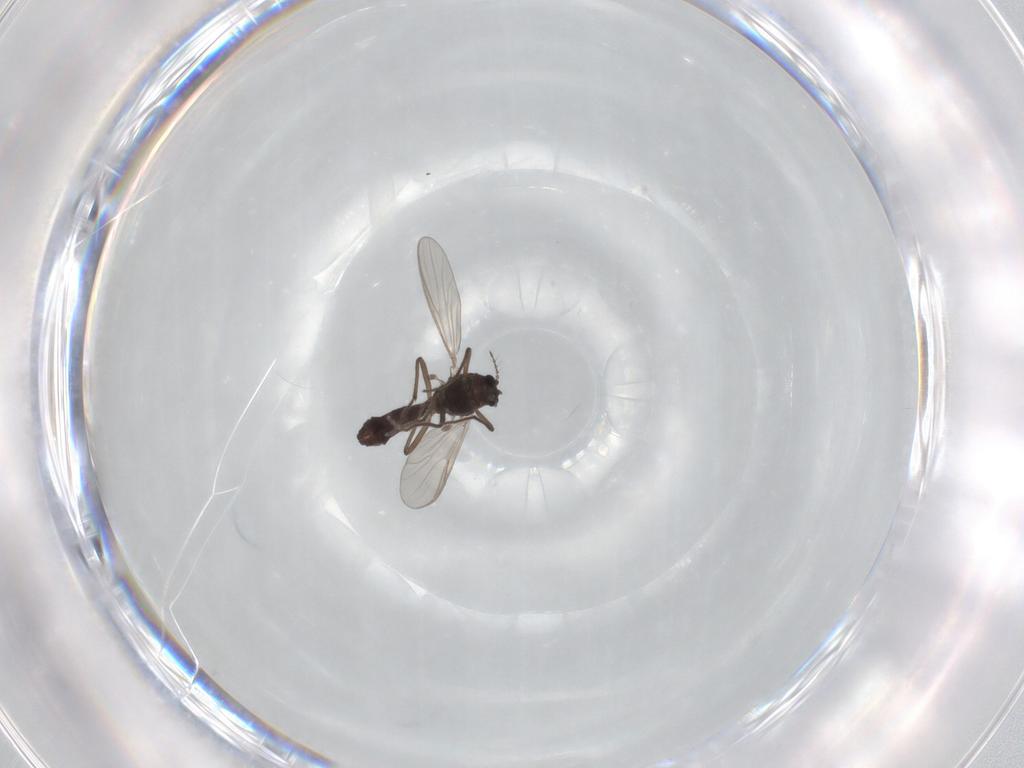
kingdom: Animalia
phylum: Arthropoda
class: Insecta
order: Diptera
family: Chironomidae
